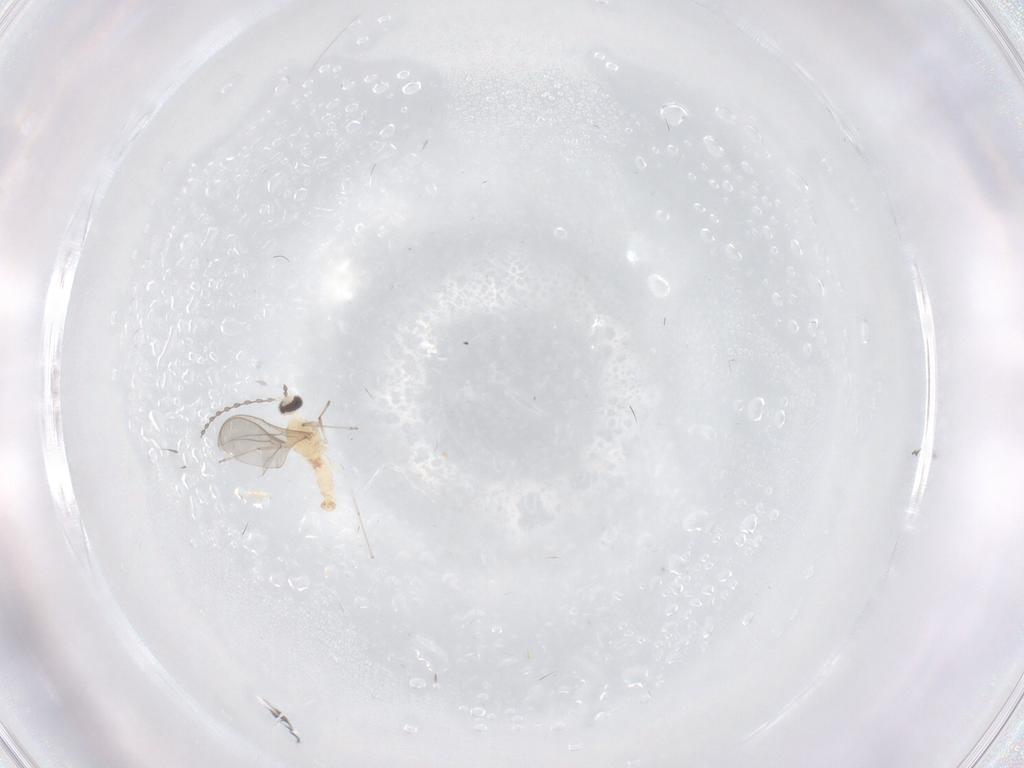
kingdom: Animalia
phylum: Arthropoda
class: Insecta
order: Diptera
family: Cecidomyiidae
